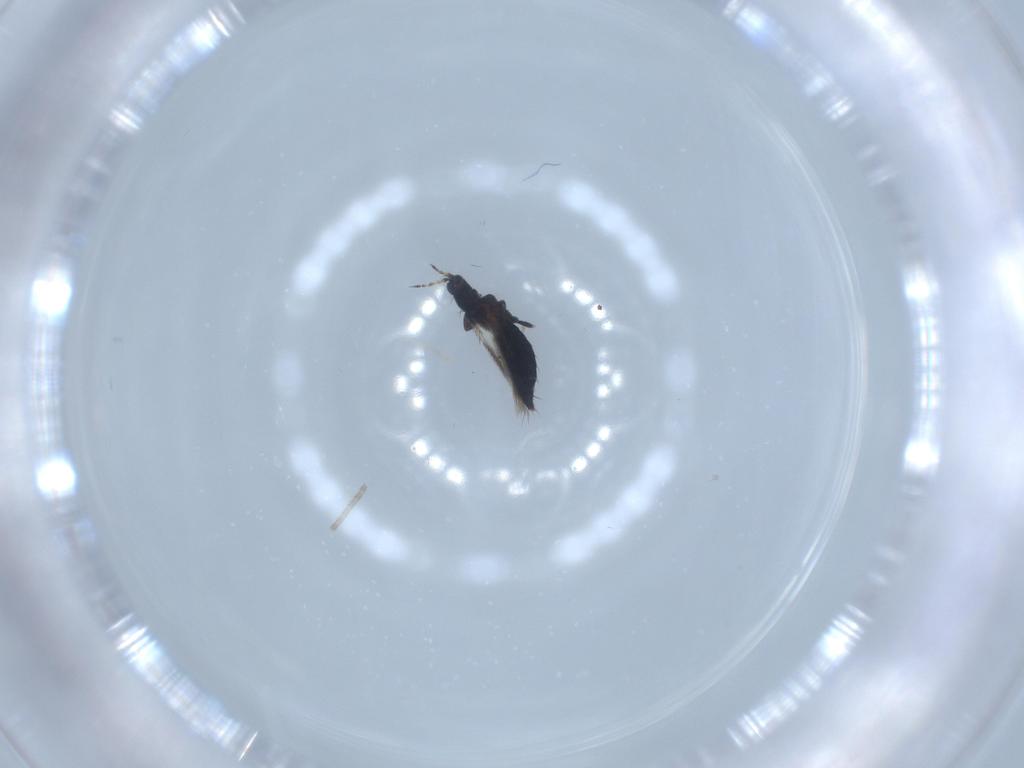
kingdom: Animalia
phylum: Arthropoda
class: Insecta
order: Thysanoptera
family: Thripidae
